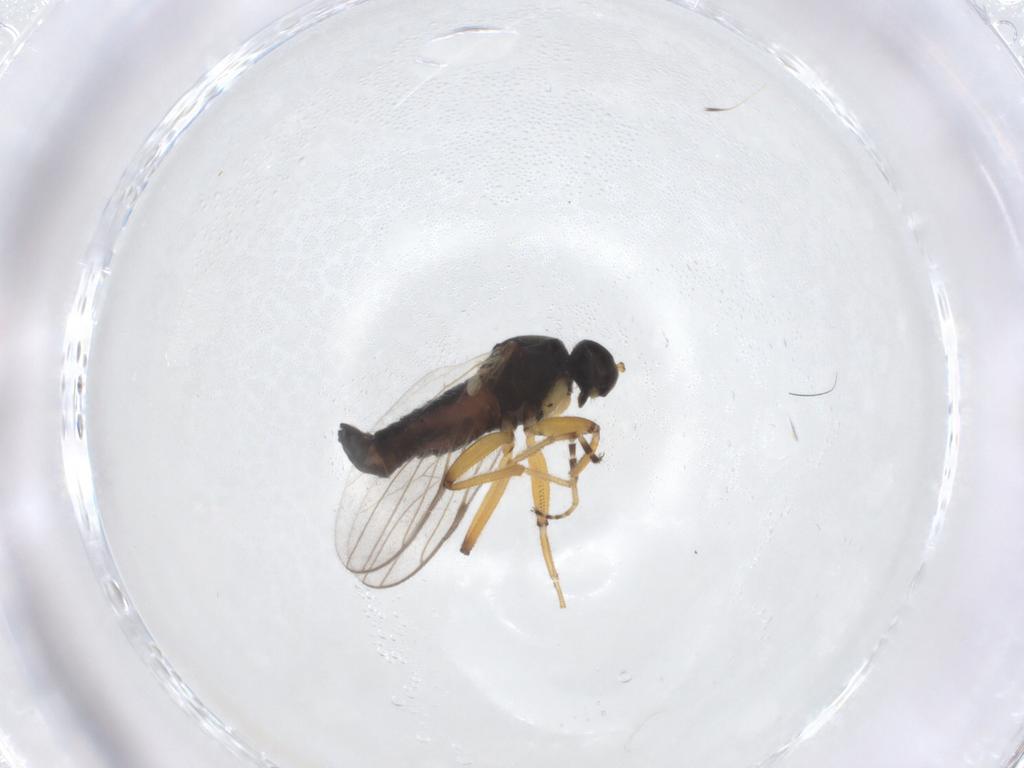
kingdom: Animalia
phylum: Arthropoda
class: Insecta
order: Diptera
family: Hybotidae
